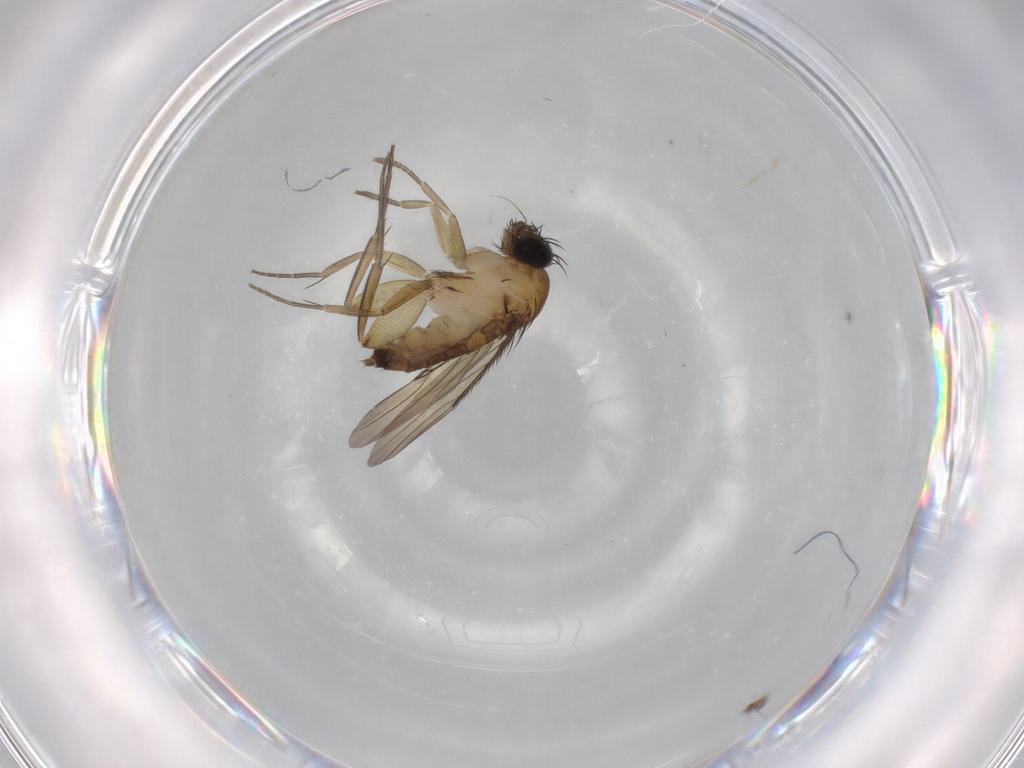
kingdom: Animalia
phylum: Arthropoda
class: Insecta
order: Diptera
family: Phoridae
